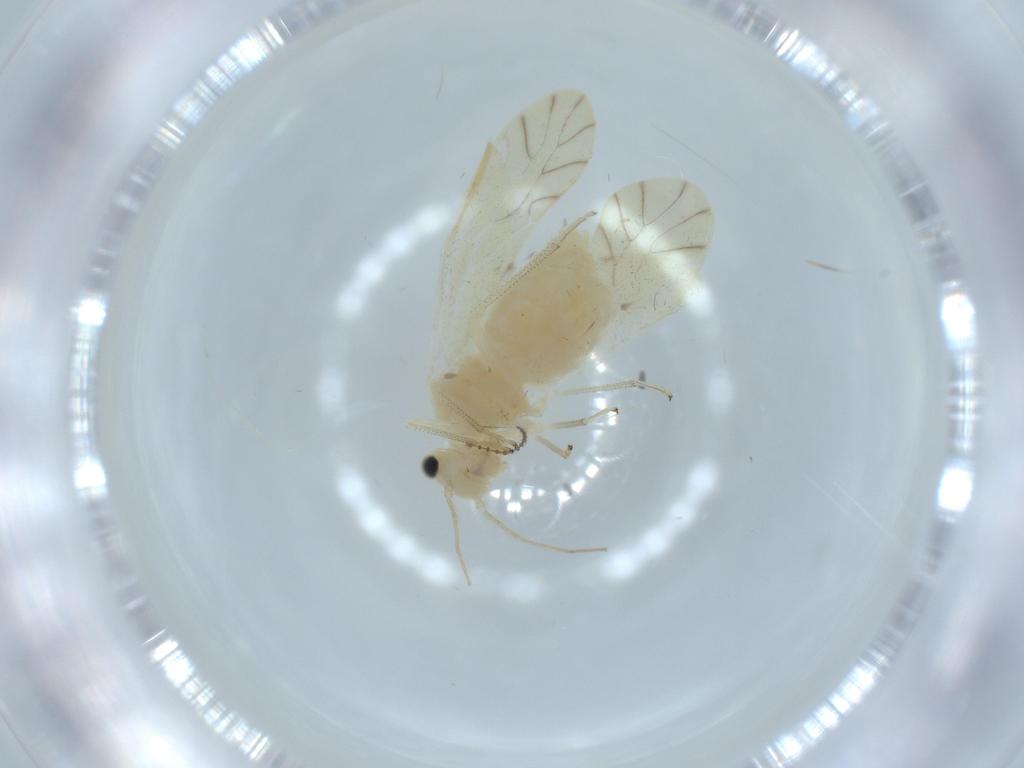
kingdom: Animalia
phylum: Arthropoda
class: Insecta
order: Psocodea
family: Caeciliusidae
